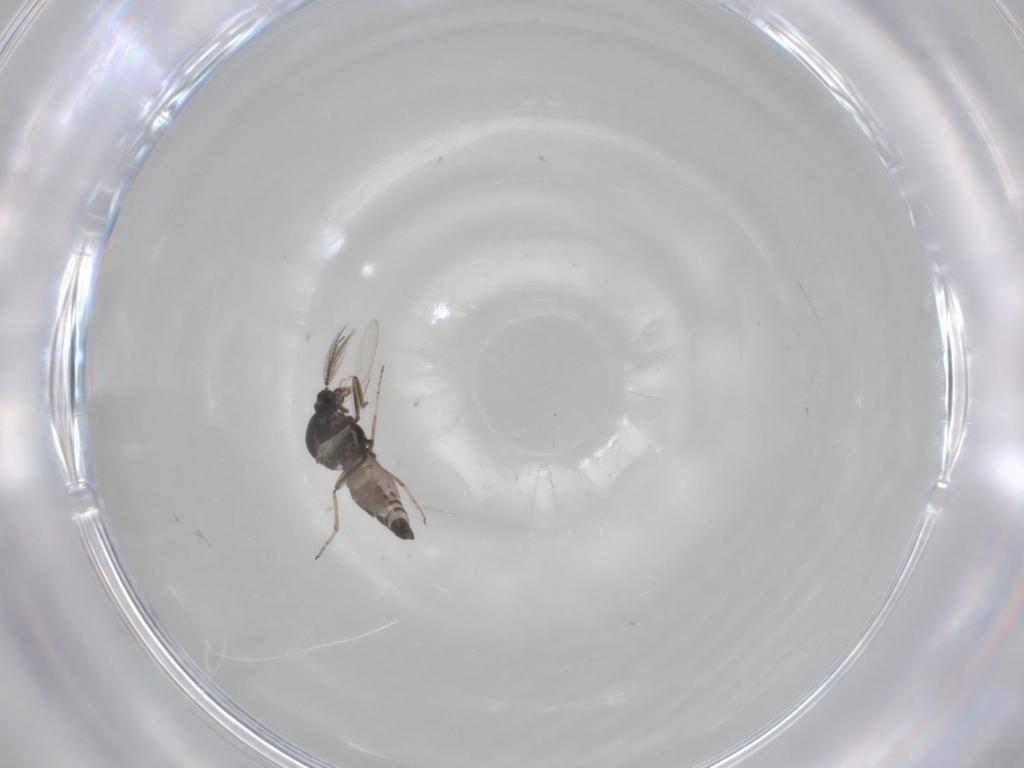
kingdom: Animalia
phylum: Arthropoda
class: Insecta
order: Diptera
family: Ceratopogonidae
